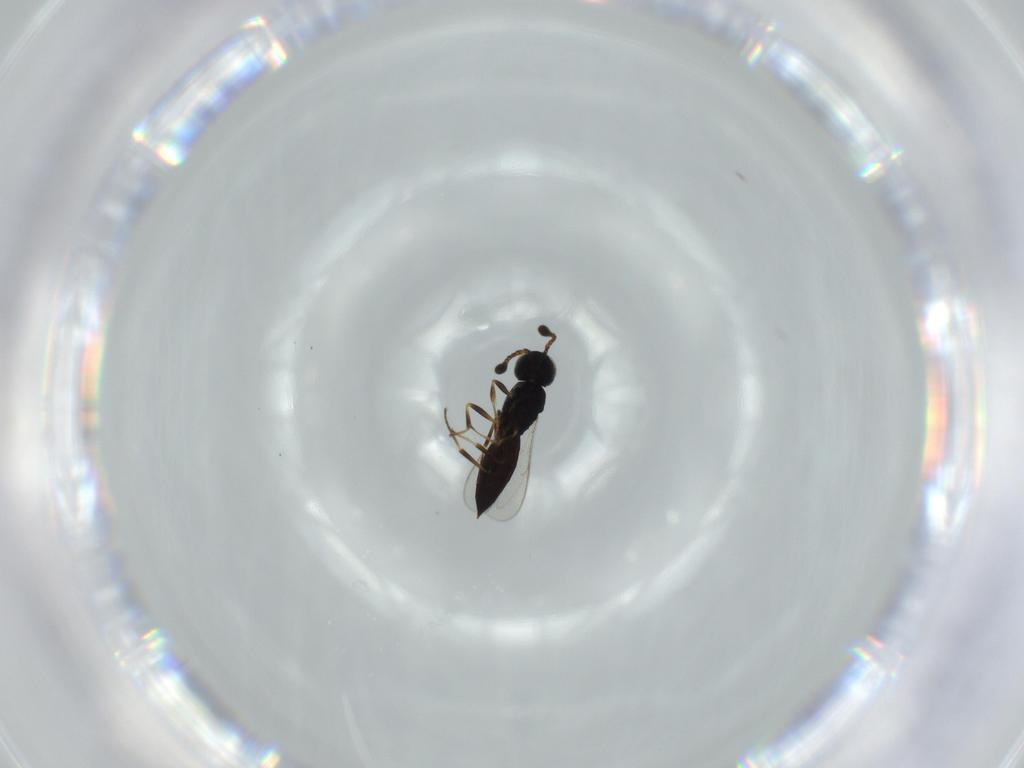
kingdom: Animalia
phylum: Arthropoda
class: Insecta
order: Hymenoptera
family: Scelionidae
